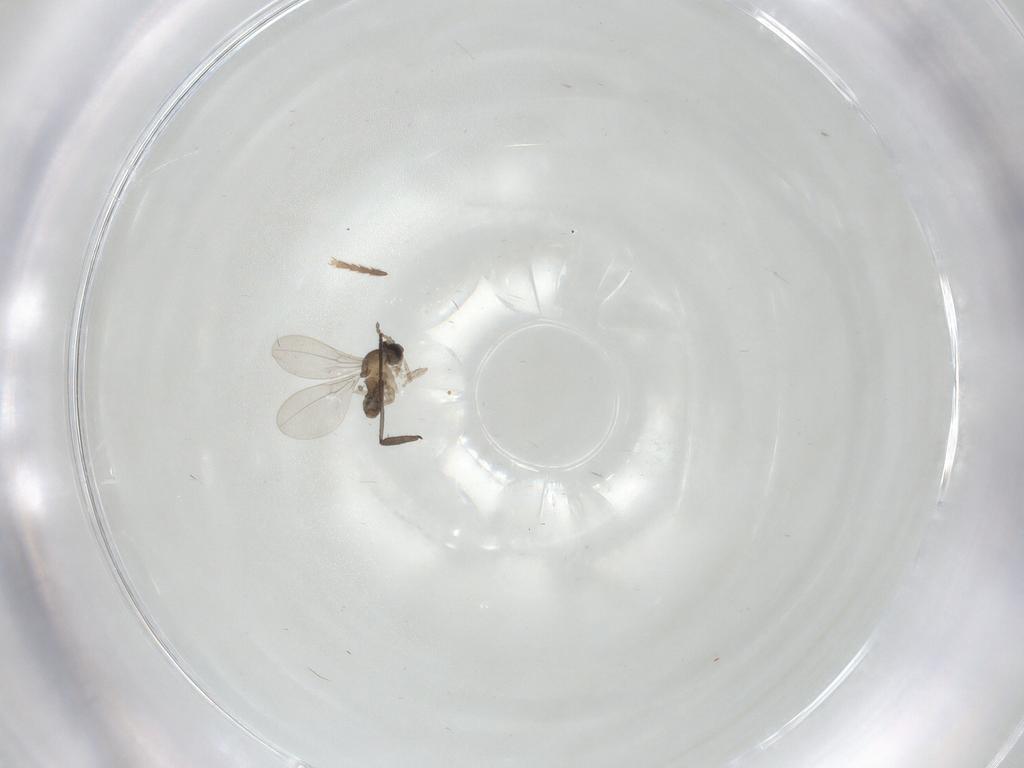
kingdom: Animalia
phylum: Arthropoda
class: Insecta
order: Diptera
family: Cecidomyiidae
